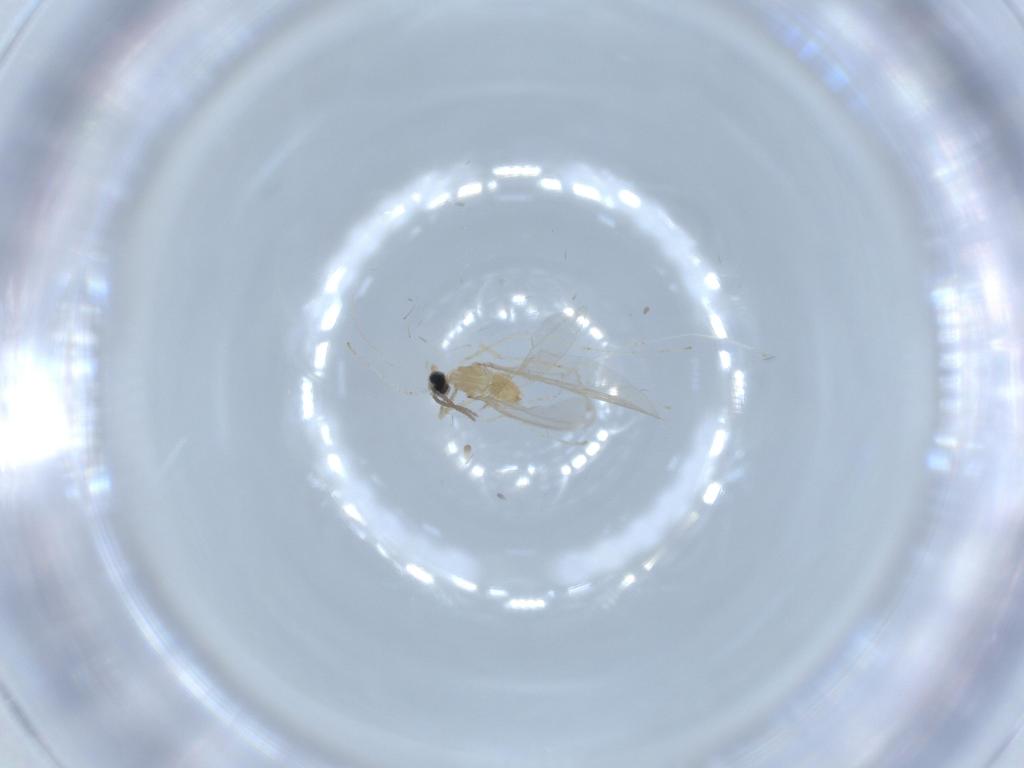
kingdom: Animalia
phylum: Arthropoda
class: Insecta
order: Diptera
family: Cecidomyiidae
